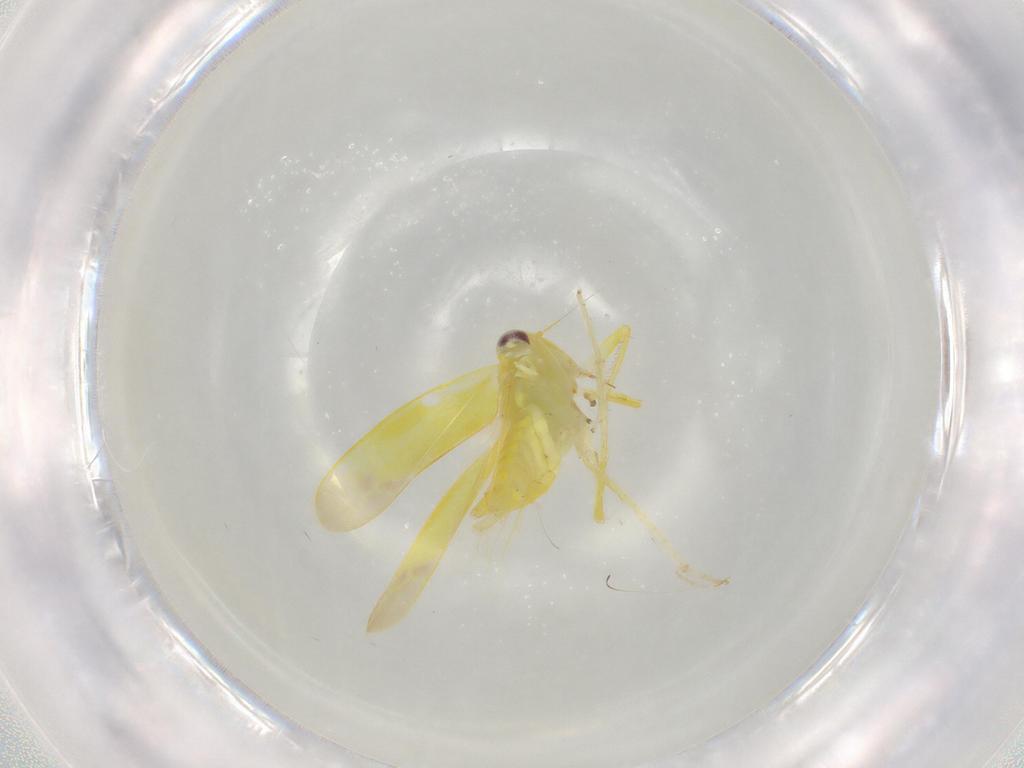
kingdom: Animalia
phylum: Arthropoda
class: Insecta
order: Hemiptera
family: Cicadellidae
